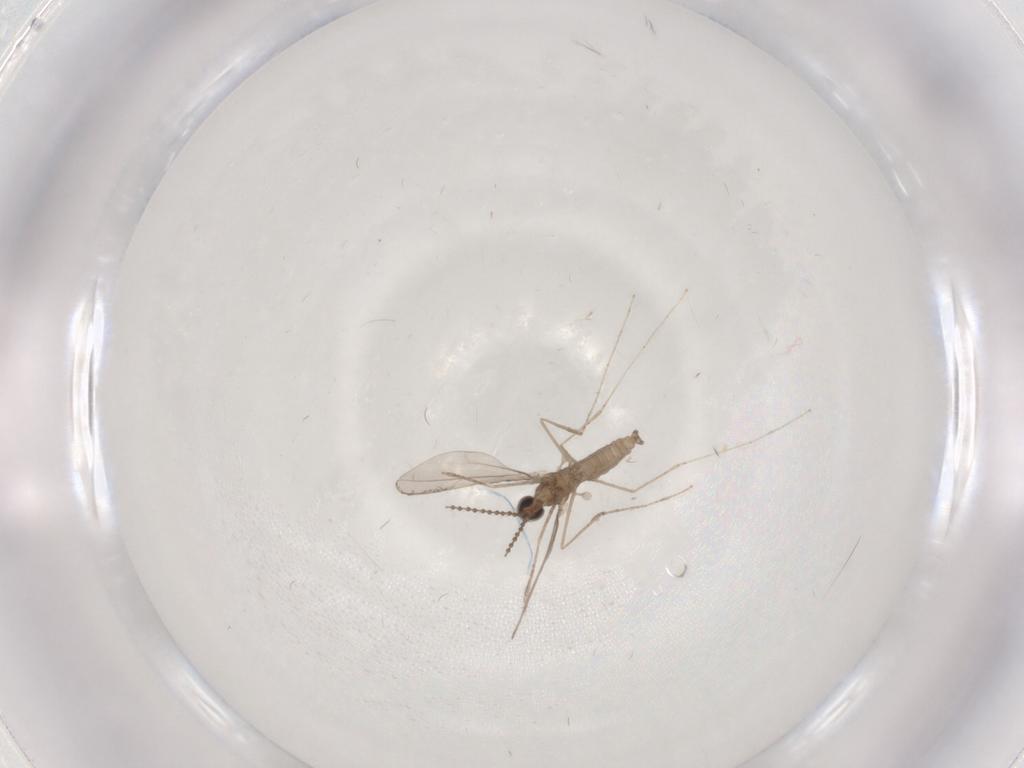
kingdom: Animalia
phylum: Arthropoda
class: Insecta
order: Diptera
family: Cecidomyiidae
